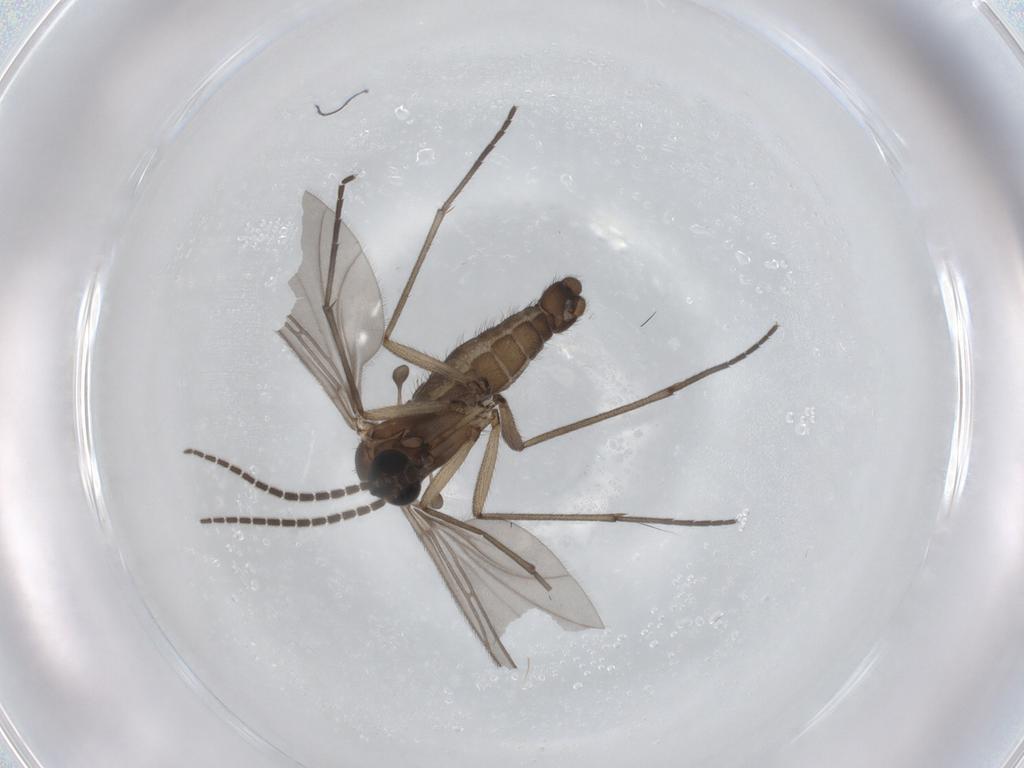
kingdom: Animalia
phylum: Arthropoda
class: Insecta
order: Diptera
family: Sciaridae
